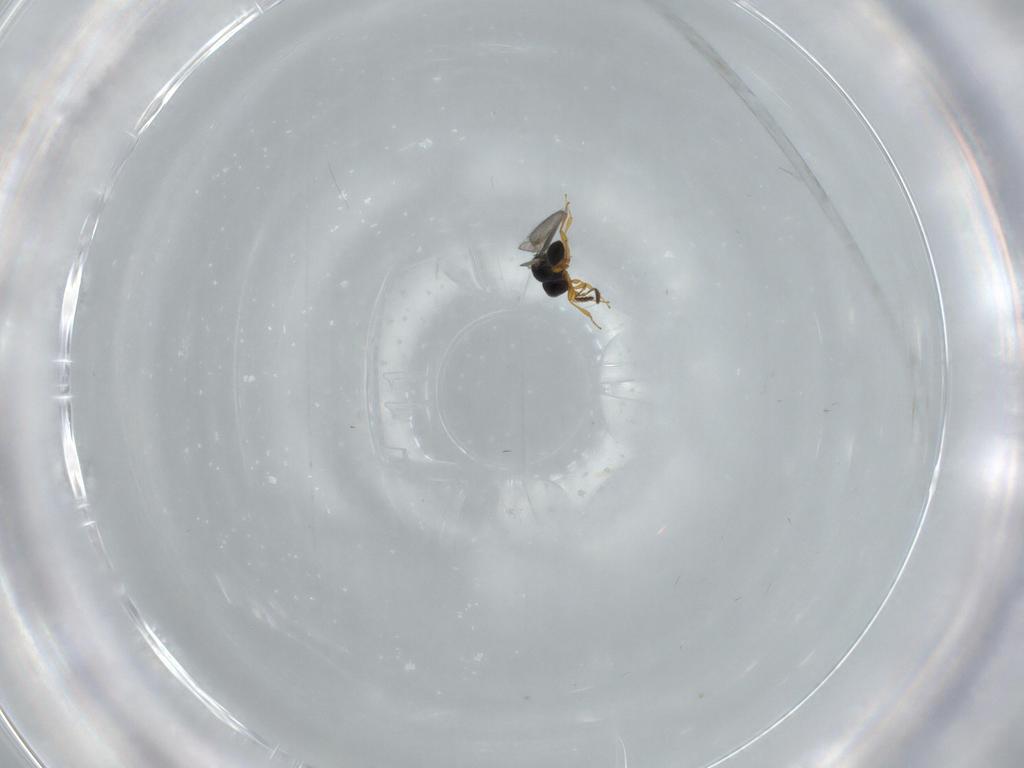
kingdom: Animalia
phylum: Arthropoda
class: Insecta
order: Hymenoptera
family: Platygastridae
